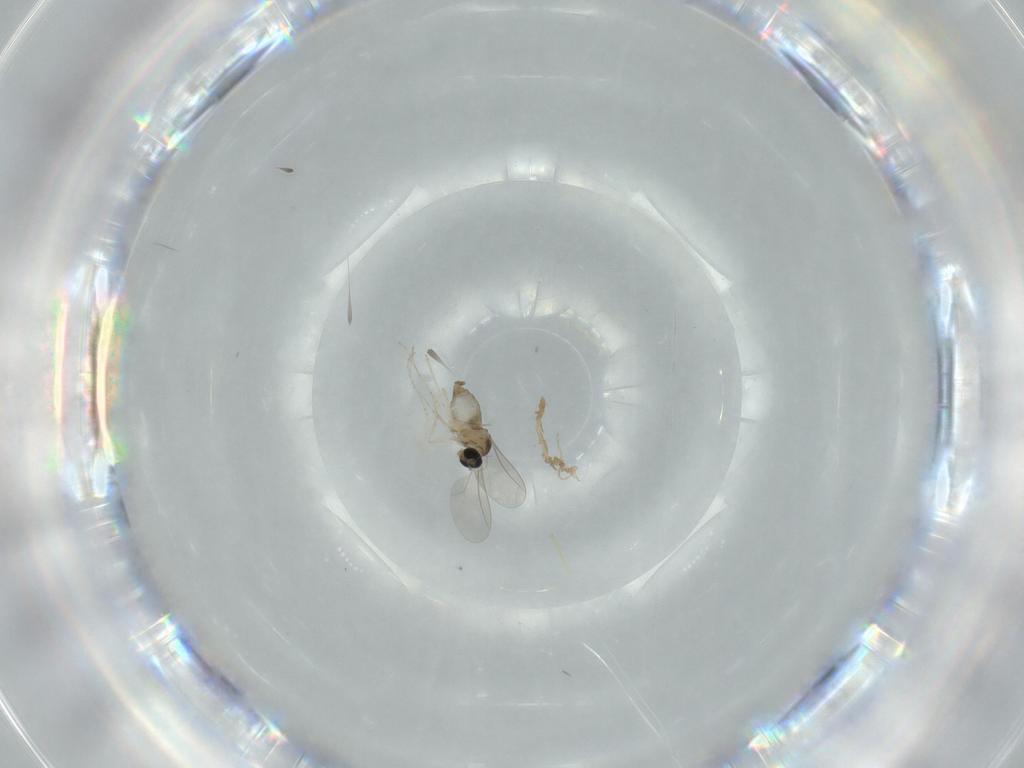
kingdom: Animalia
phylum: Arthropoda
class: Insecta
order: Diptera
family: Cecidomyiidae
